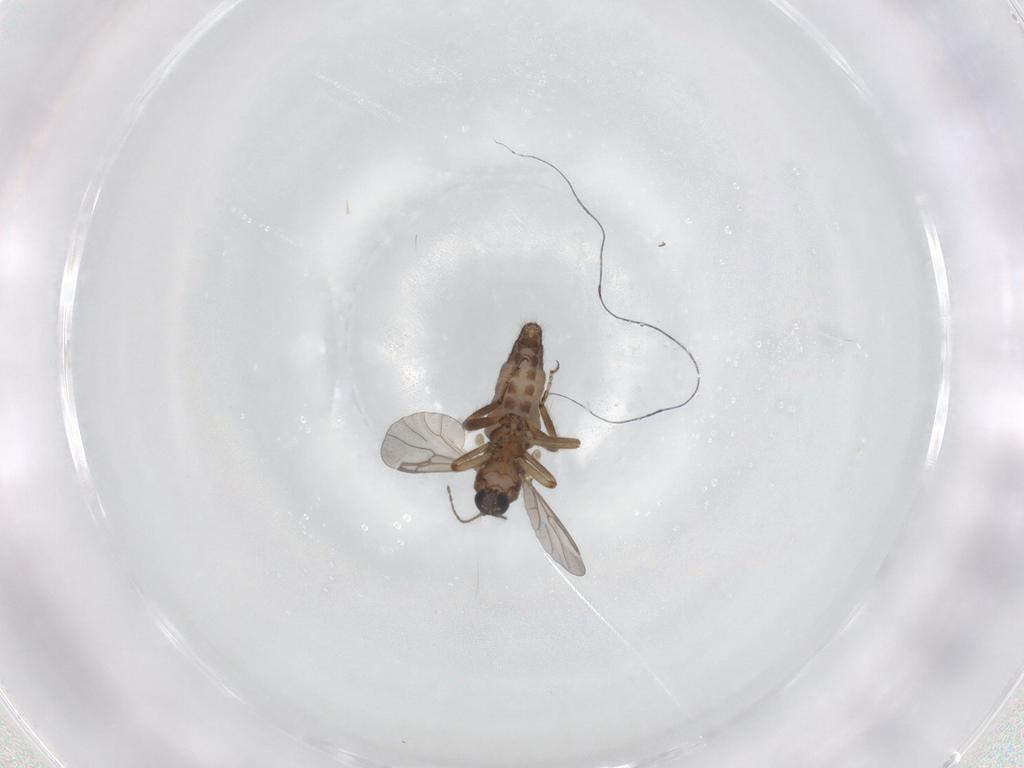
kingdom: Animalia
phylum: Arthropoda
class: Insecta
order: Diptera
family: Ceratopogonidae
